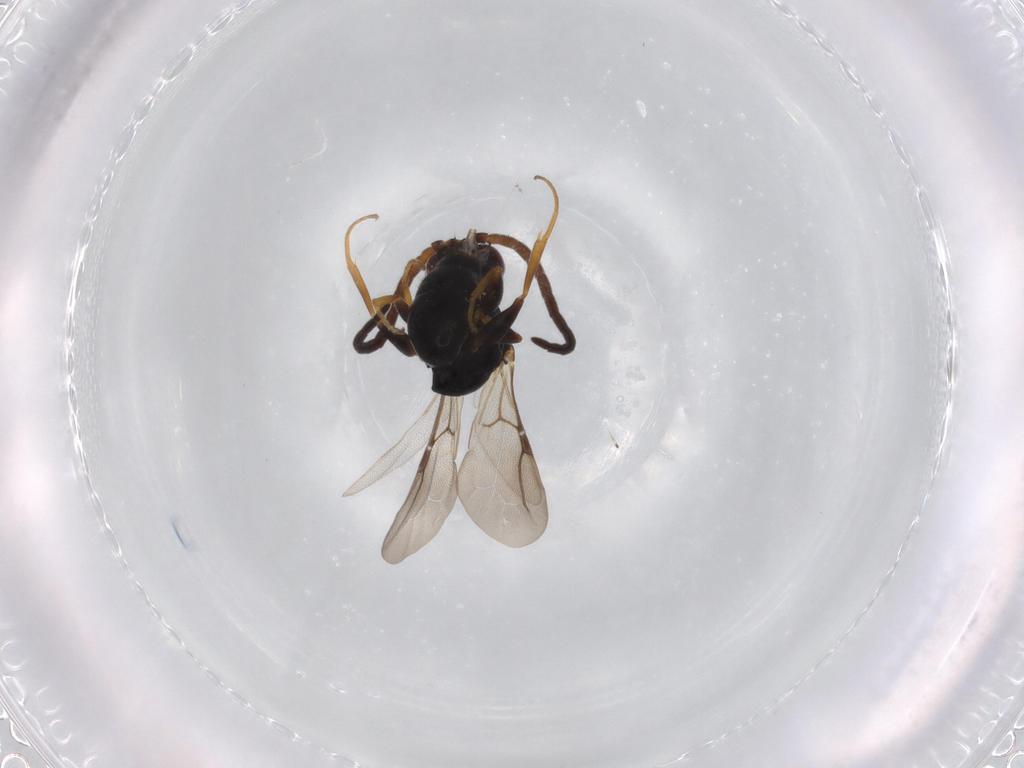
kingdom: Animalia
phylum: Arthropoda
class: Insecta
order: Hymenoptera
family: Bethylidae
